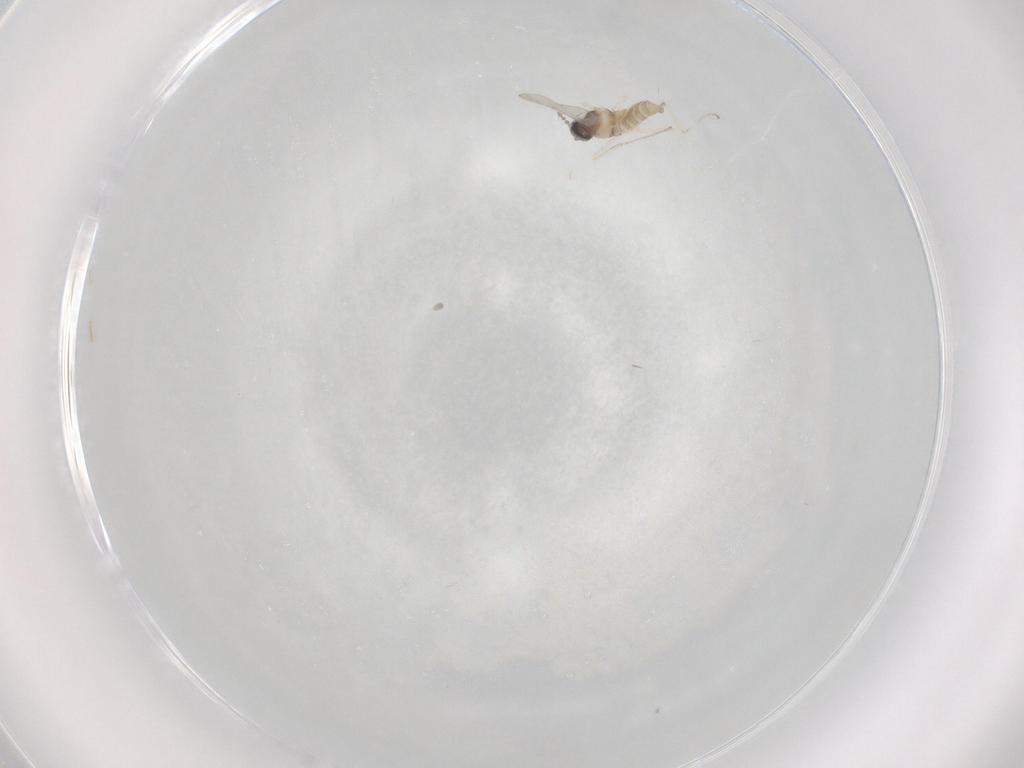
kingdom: Animalia
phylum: Arthropoda
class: Insecta
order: Diptera
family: Cecidomyiidae
